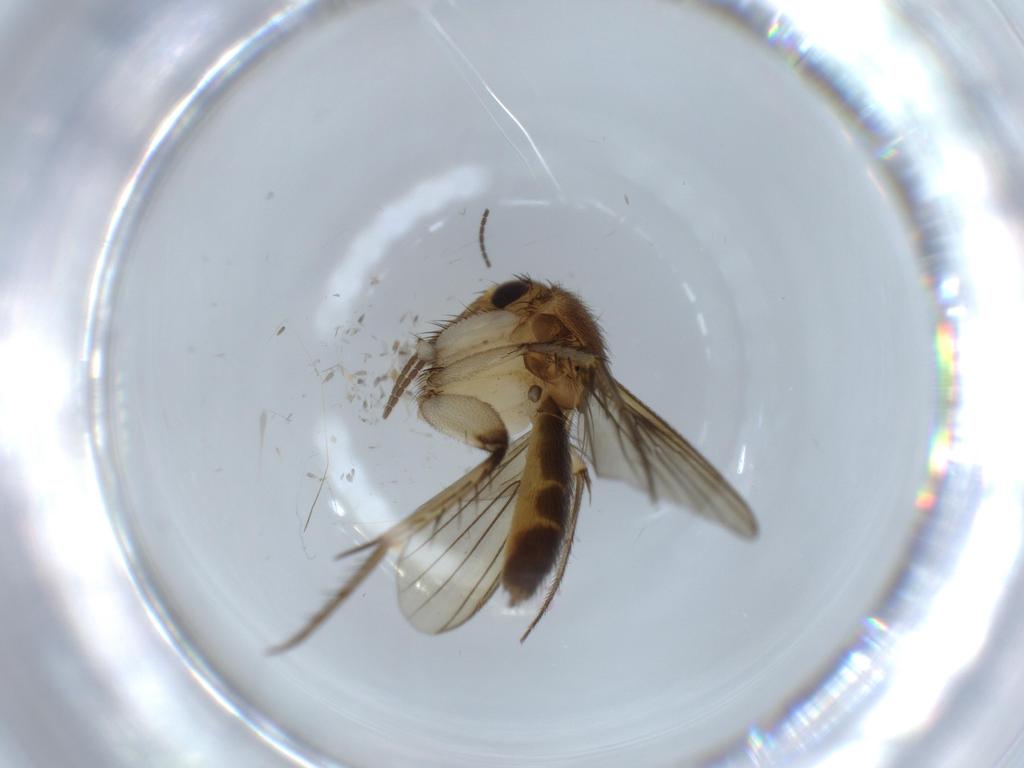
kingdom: Animalia
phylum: Arthropoda
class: Insecta
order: Diptera
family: Mycetophilidae
